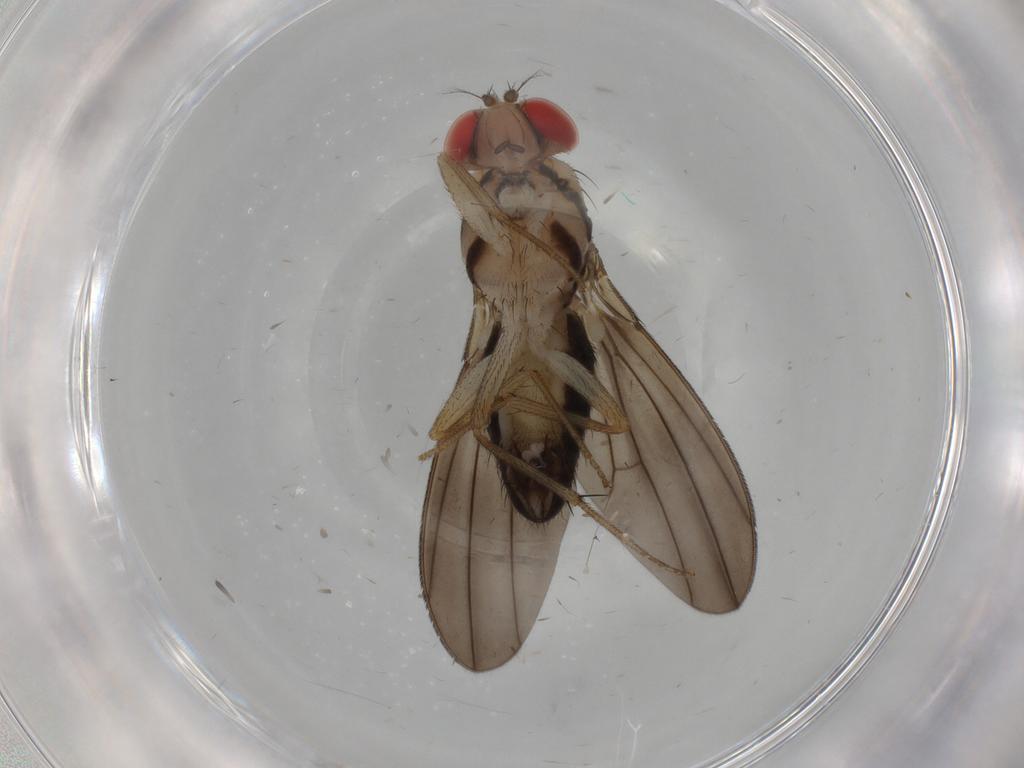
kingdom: Animalia
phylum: Arthropoda
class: Insecta
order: Diptera
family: Drosophilidae
